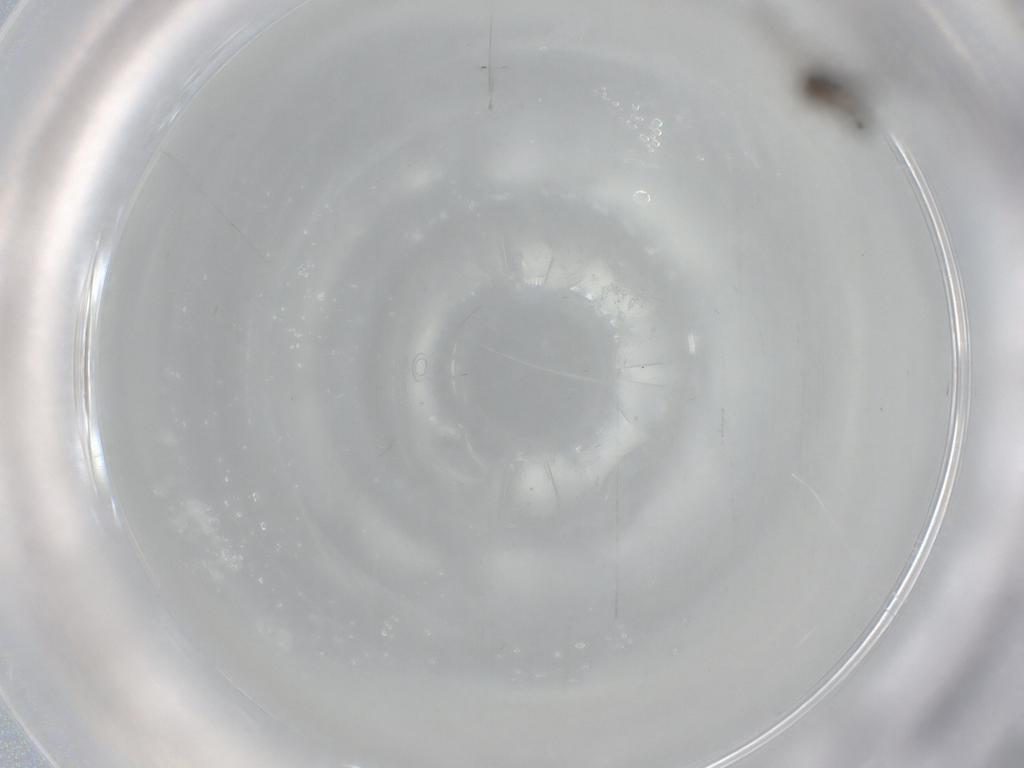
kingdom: Animalia
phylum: Arthropoda
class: Insecta
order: Diptera
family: Chironomidae
